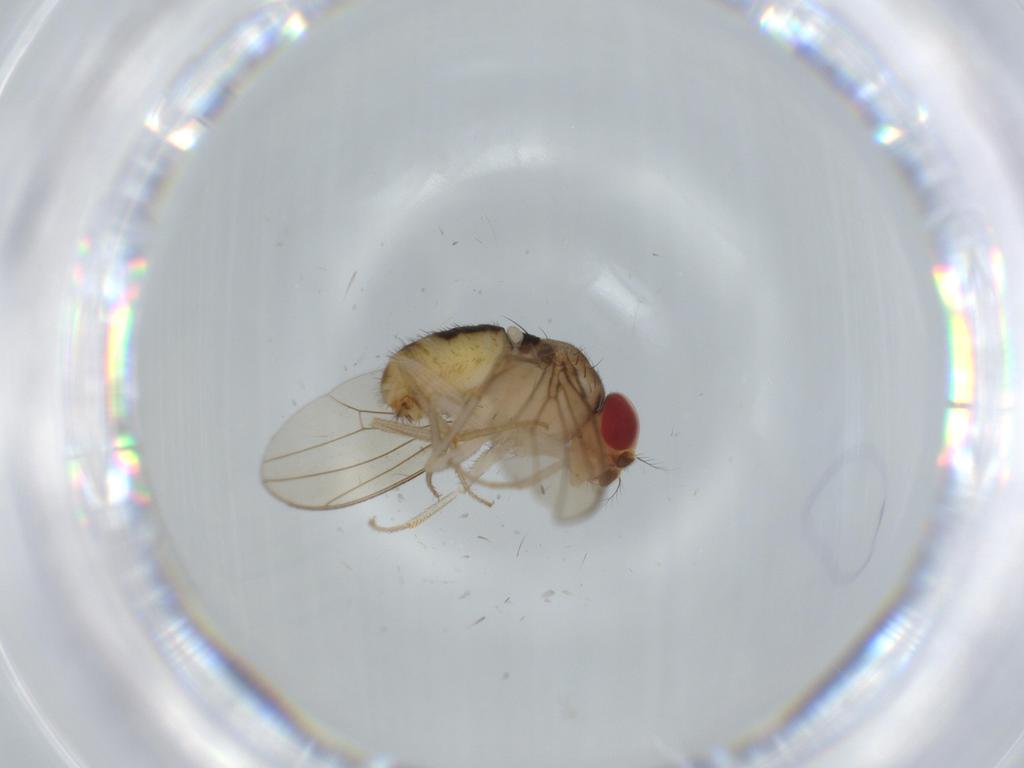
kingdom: Animalia
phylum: Arthropoda
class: Insecta
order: Diptera
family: Drosophilidae
